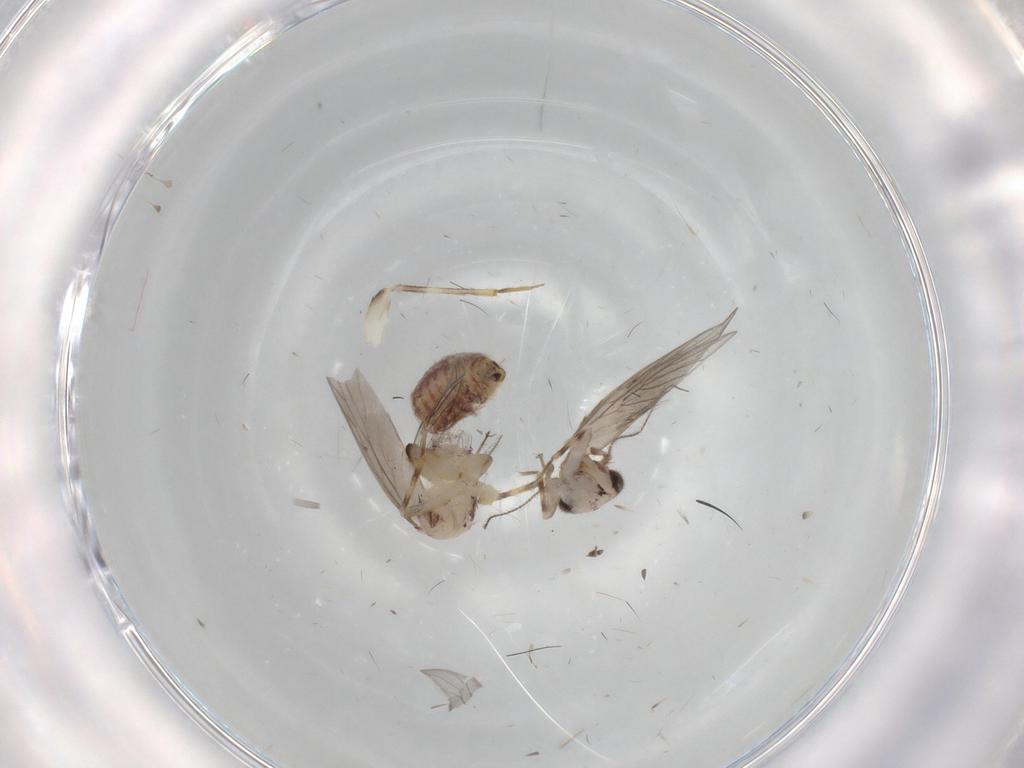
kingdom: Animalia
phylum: Arthropoda
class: Insecta
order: Psocodea
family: Lepidopsocidae
